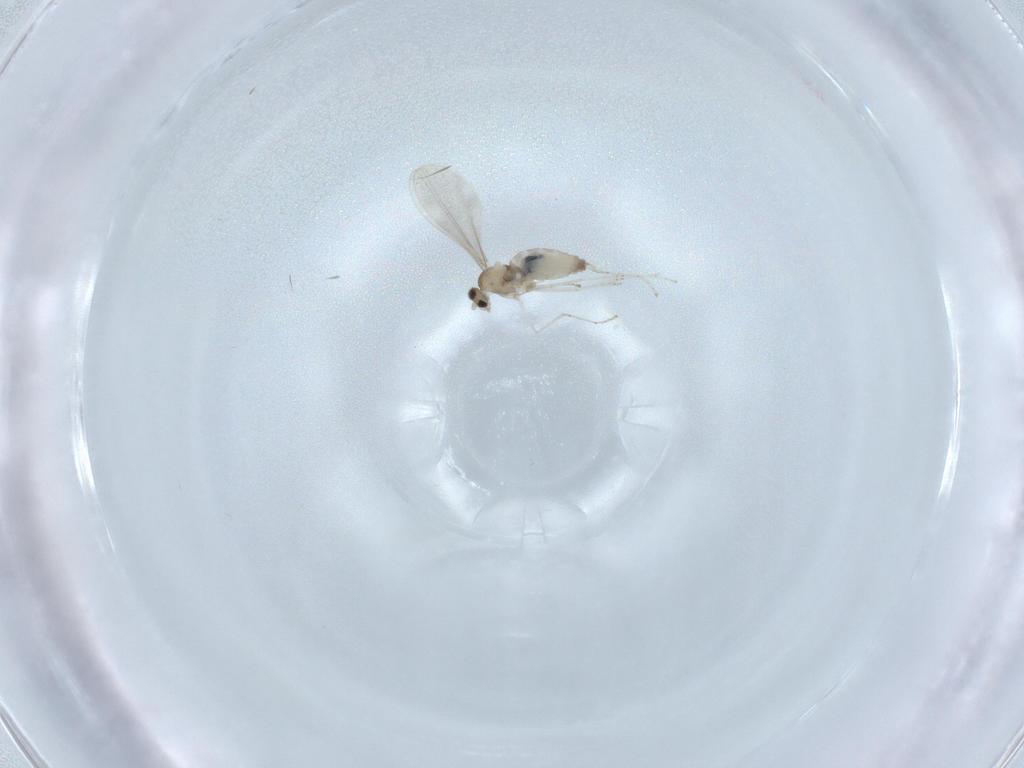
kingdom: Animalia
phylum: Arthropoda
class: Insecta
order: Diptera
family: Cecidomyiidae
